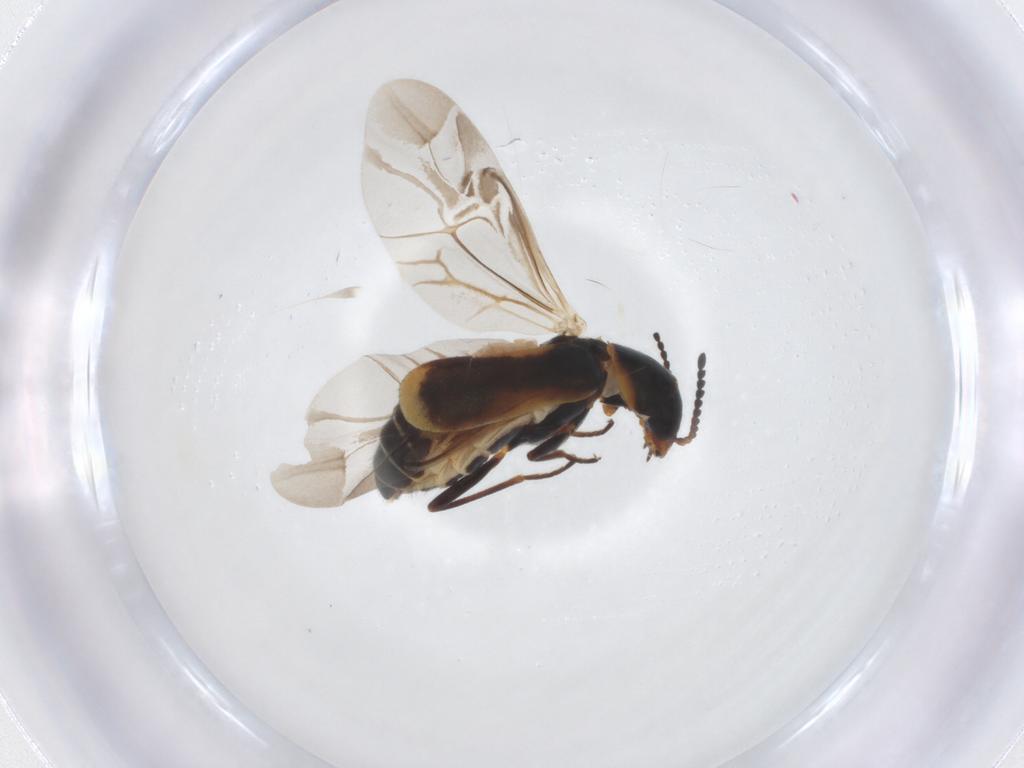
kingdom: Animalia
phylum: Arthropoda
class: Insecta
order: Coleoptera
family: Melyridae
